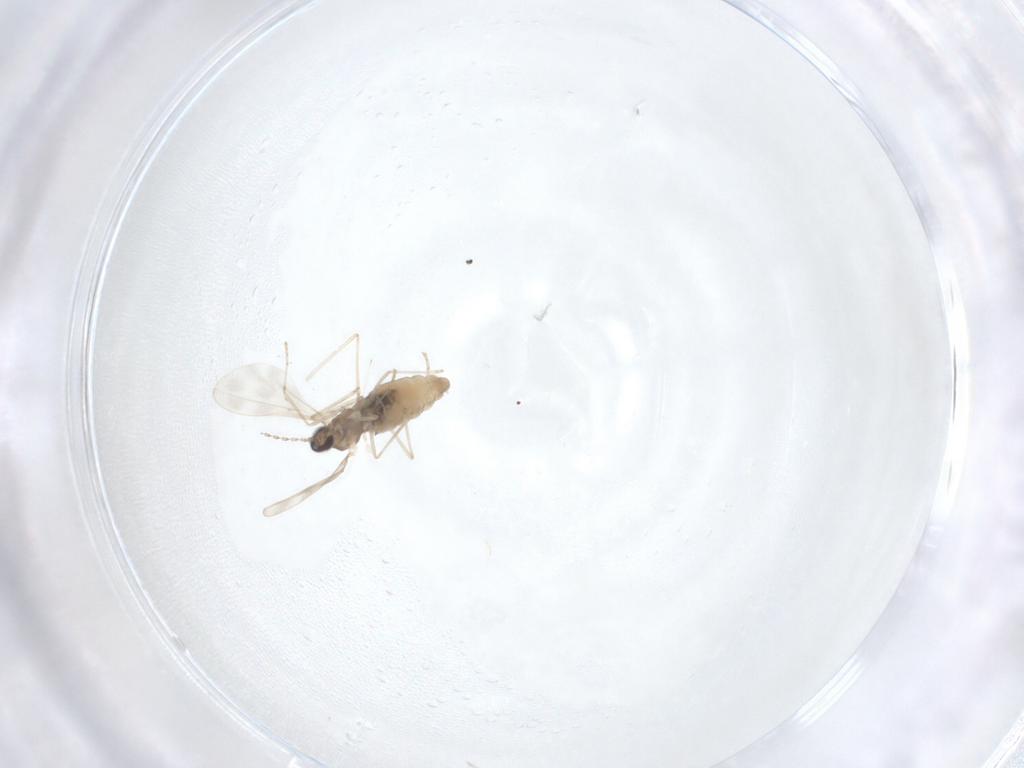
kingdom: Animalia
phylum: Arthropoda
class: Insecta
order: Diptera
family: Cecidomyiidae
